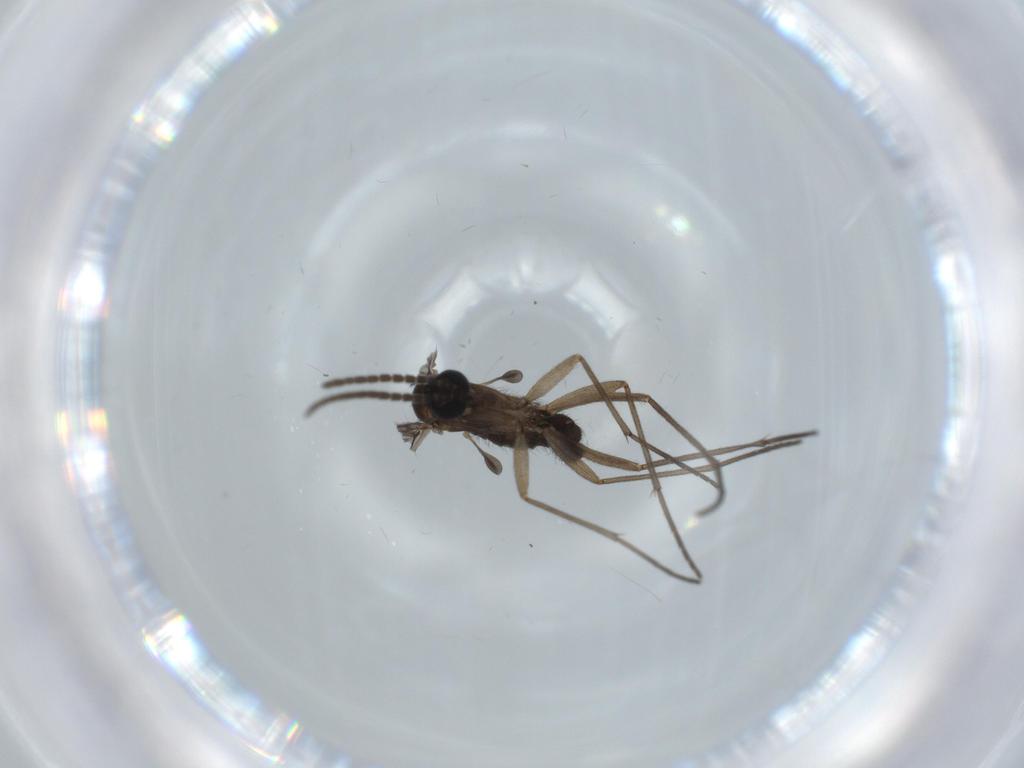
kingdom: Animalia
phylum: Arthropoda
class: Insecta
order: Diptera
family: Sciaridae
